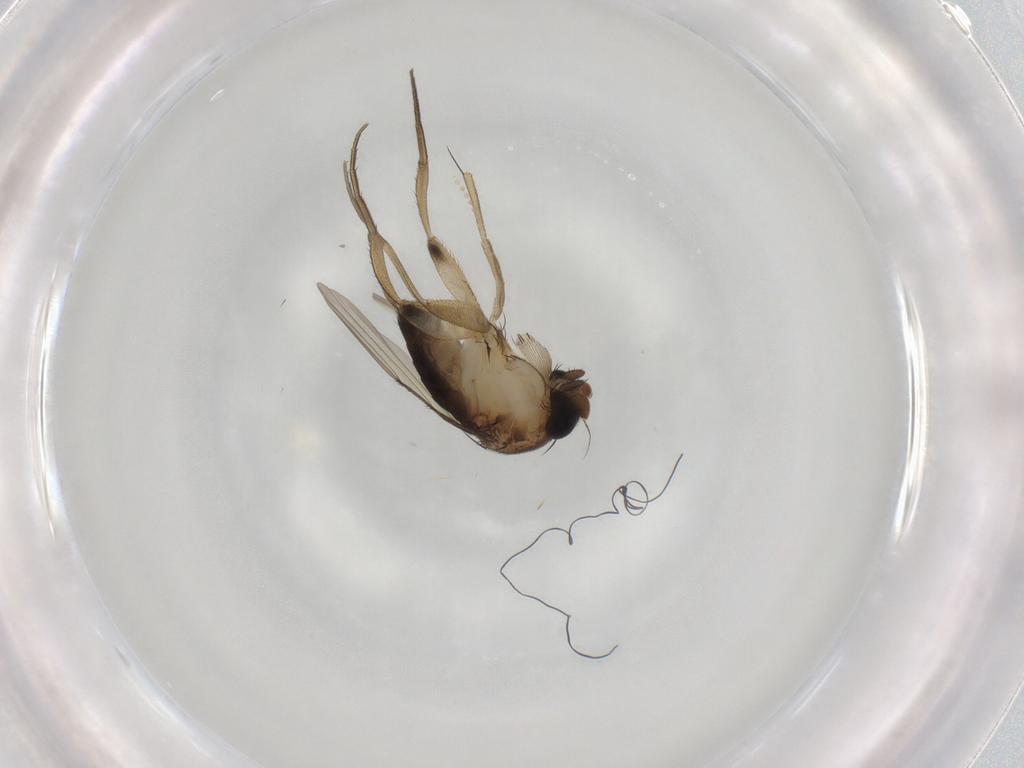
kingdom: Animalia
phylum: Arthropoda
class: Insecta
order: Diptera
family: Phoridae
